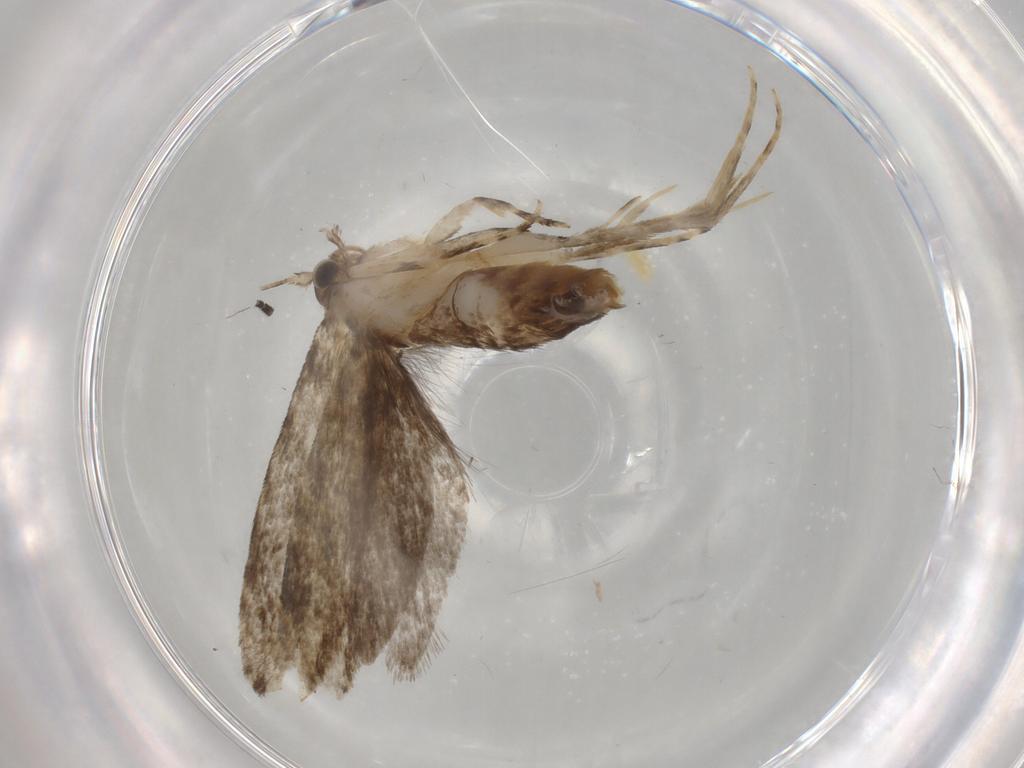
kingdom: Animalia
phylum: Arthropoda
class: Insecta
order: Lepidoptera
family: Tineidae
